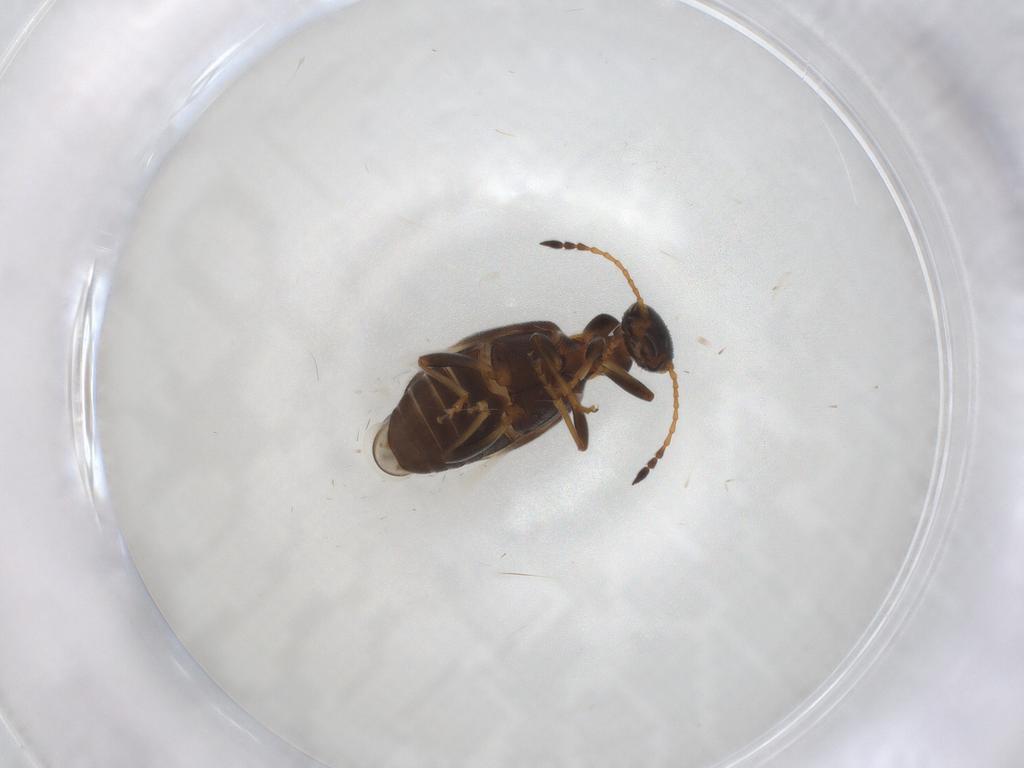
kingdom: Animalia
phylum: Arthropoda
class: Insecta
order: Coleoptera
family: Anthicidae
